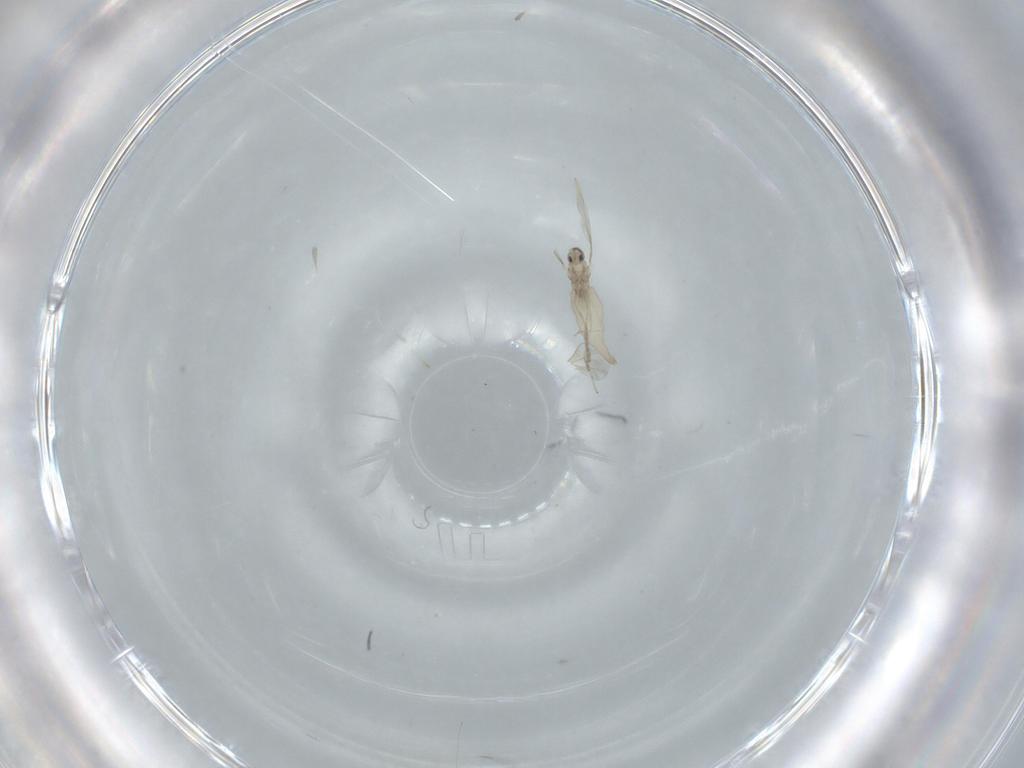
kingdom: Animalia
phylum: Arthropoda
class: Insecta
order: Diptera
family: Cecidomyiidae
